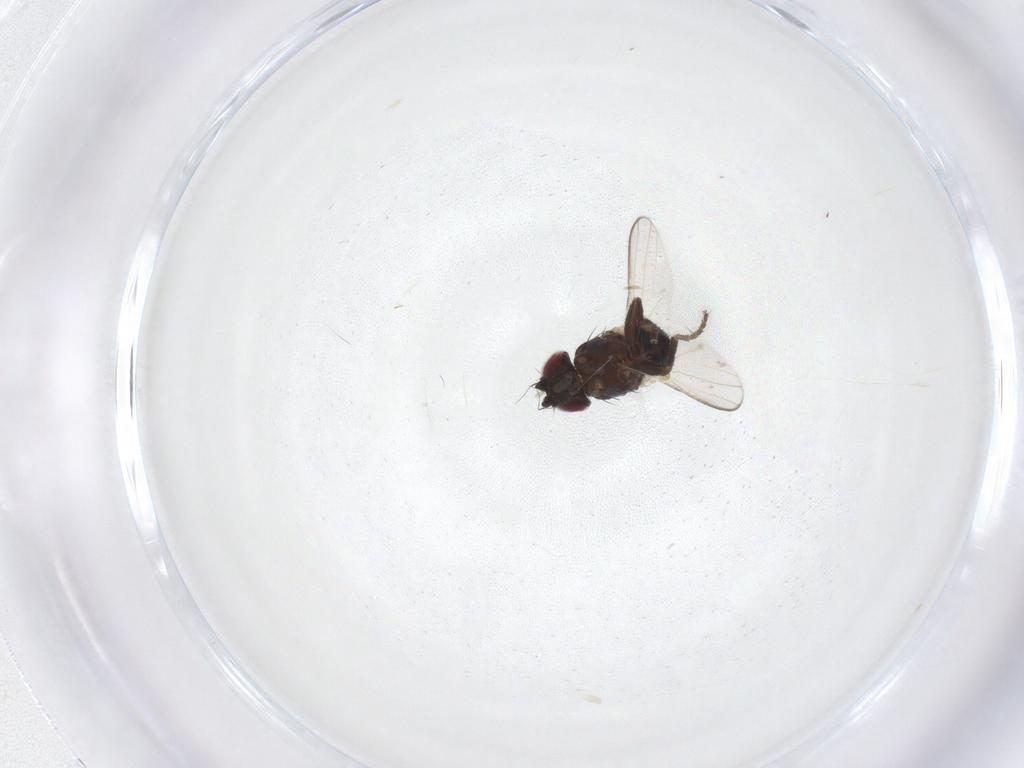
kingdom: Animalia
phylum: Arthropoda
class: Insecta
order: Diptera
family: Milichiidae
